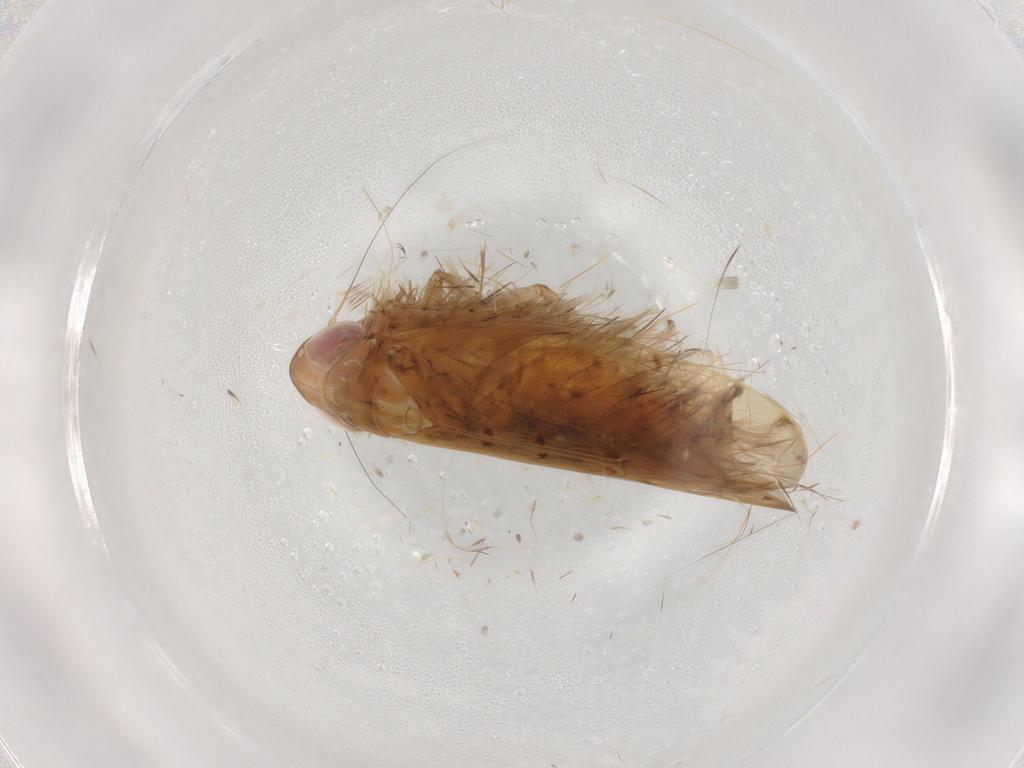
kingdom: Animalia
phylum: Arthropoda
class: Insecta
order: Hemiptera
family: Cicadellidae
